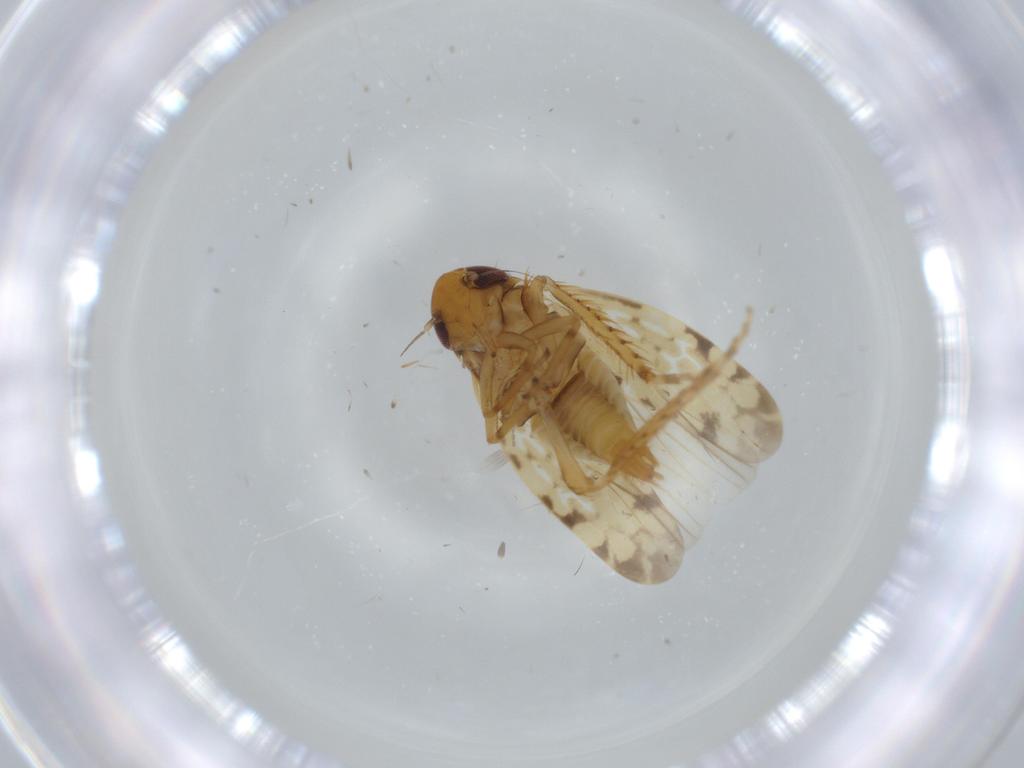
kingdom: Animalia
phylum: Arthropoda
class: Insecta
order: Hemiptera
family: Cicadellidae
